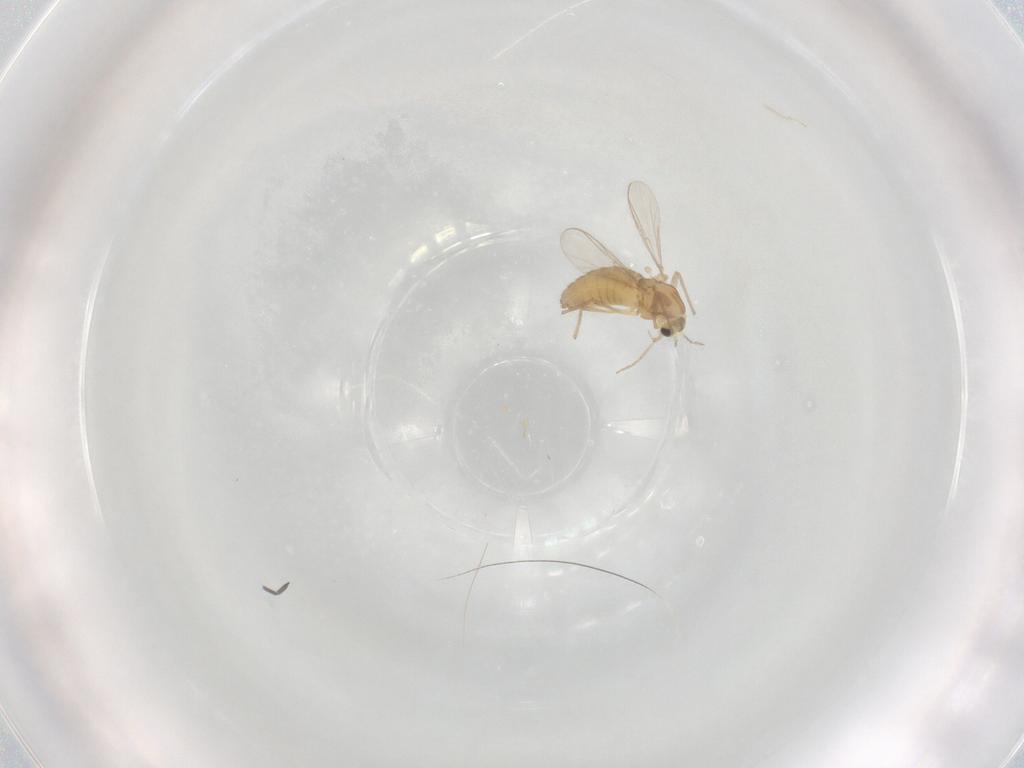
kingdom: Animalia
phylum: Arthropoda
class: Insecta
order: Diptera
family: Chironomidae
